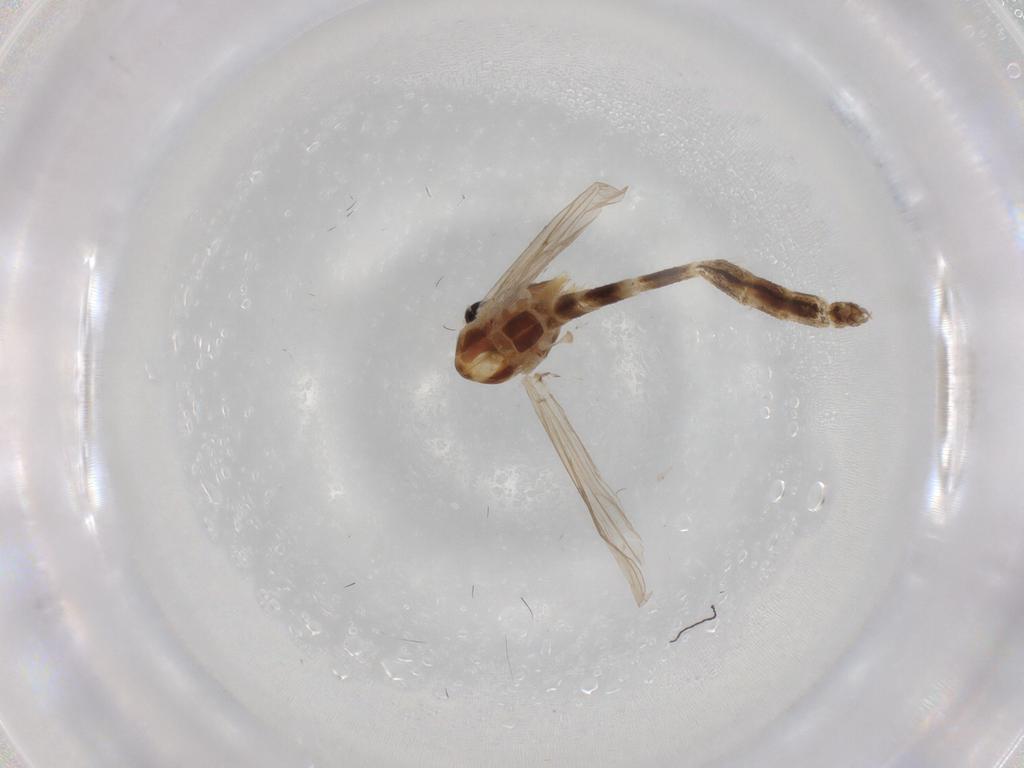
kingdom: Animalia
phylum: Arthropoda
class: Insecta
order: Diptera
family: Chironomidae
